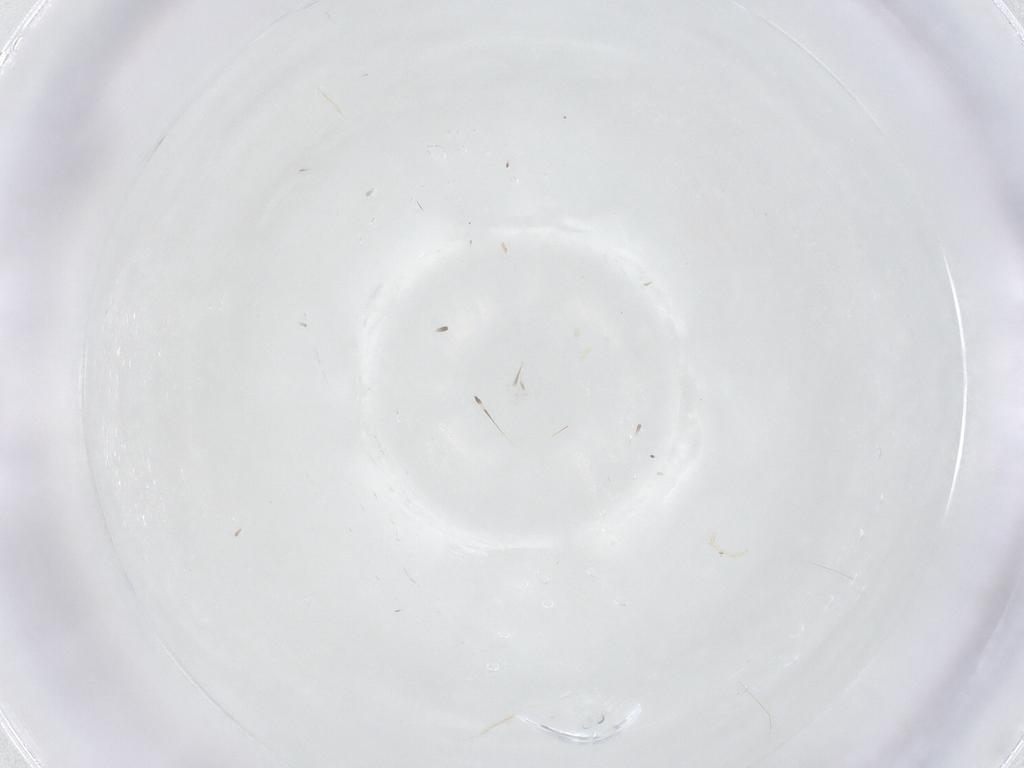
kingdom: Animalia
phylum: Arthropoda
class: Arachnida
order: Trombidiformes
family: Erythraeidae
